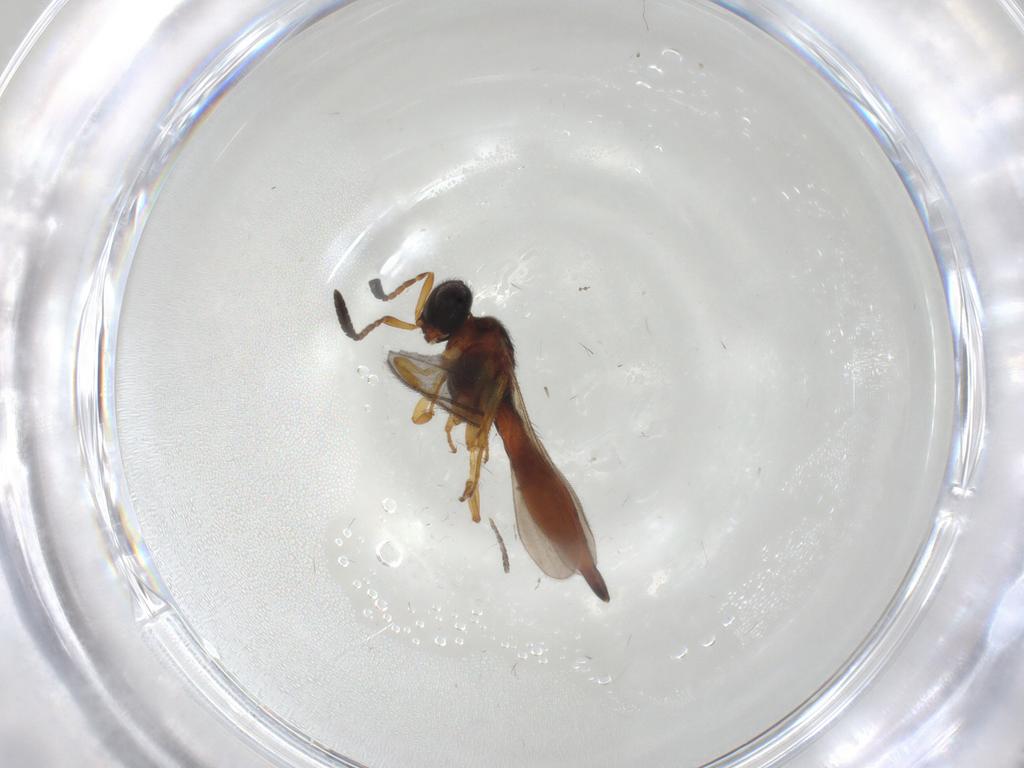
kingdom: Animalia
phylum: Arthropoda
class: Insecta
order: Hymenoptera
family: Scelionidae
